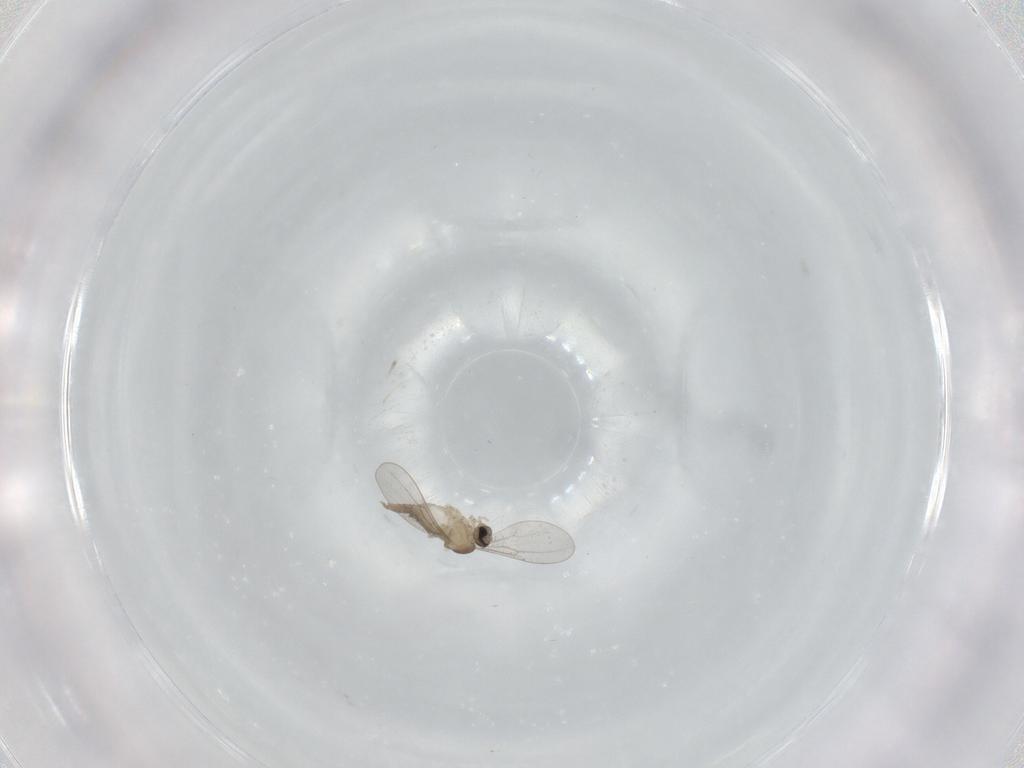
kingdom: Animalia
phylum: Arthropoda
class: Insecta
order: Diptera
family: Cecidomyiidae
